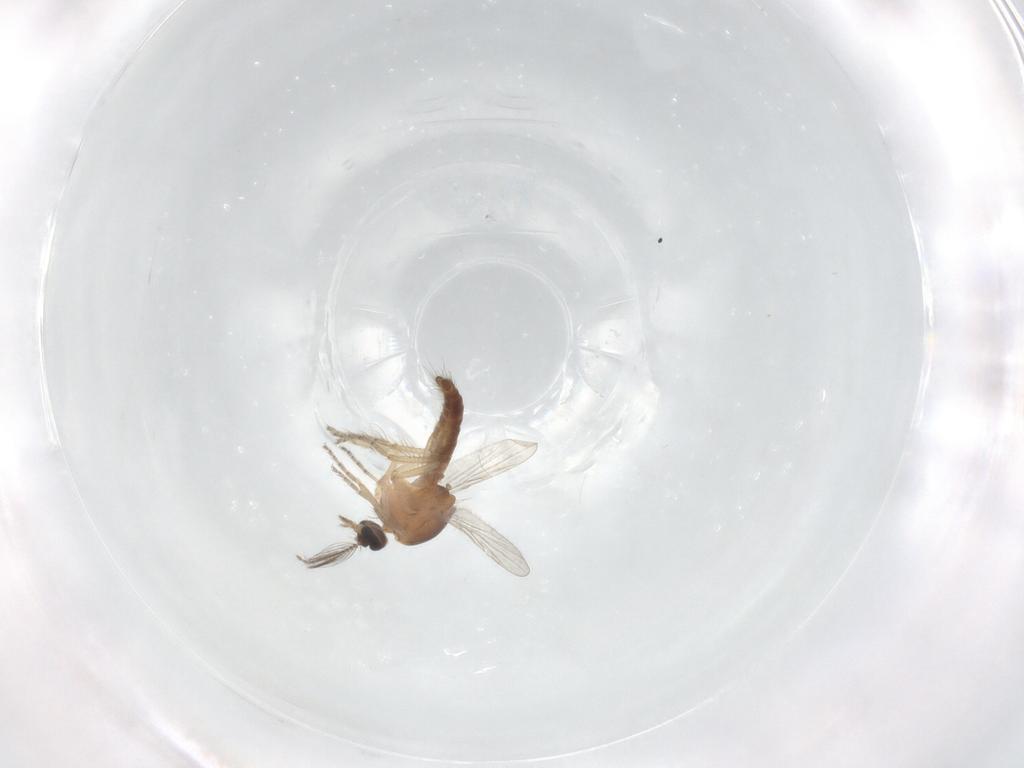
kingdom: Animalia
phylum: Arthropoda
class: Insecta
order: Diptera
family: Ceratopogonidae
